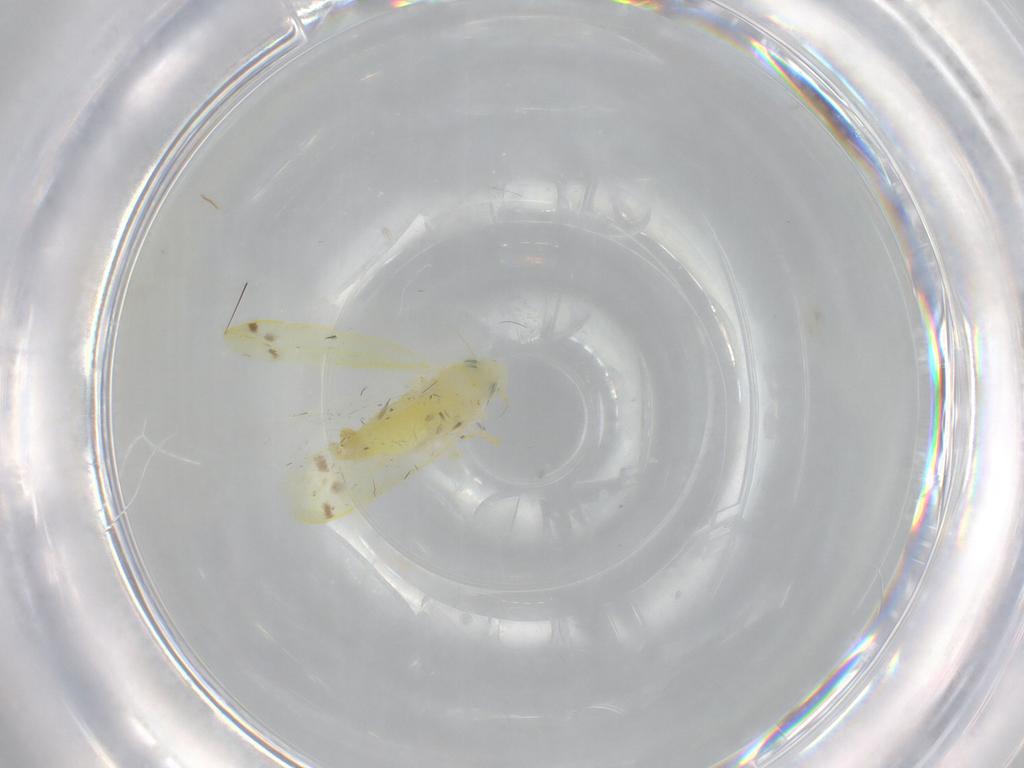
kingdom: Animalia
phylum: Arthropoda
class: Insecta
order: Hemiptera
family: Cicadellidae
